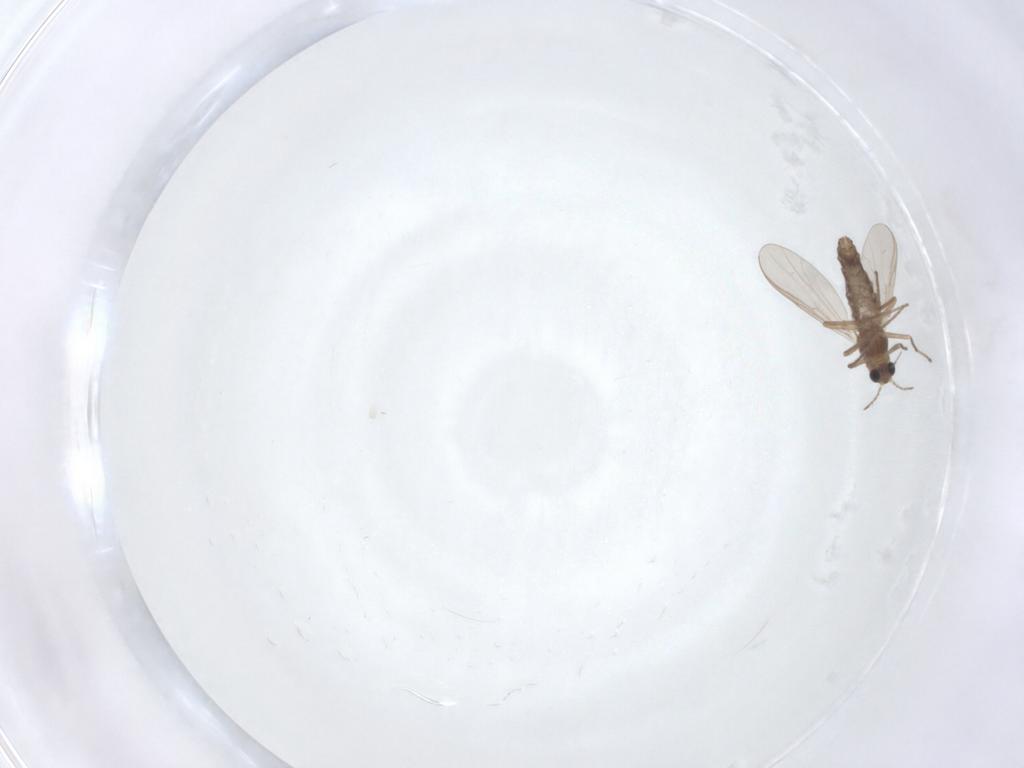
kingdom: Animalia
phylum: Arthropoda
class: Insecta
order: Diptera
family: Chironomidae
